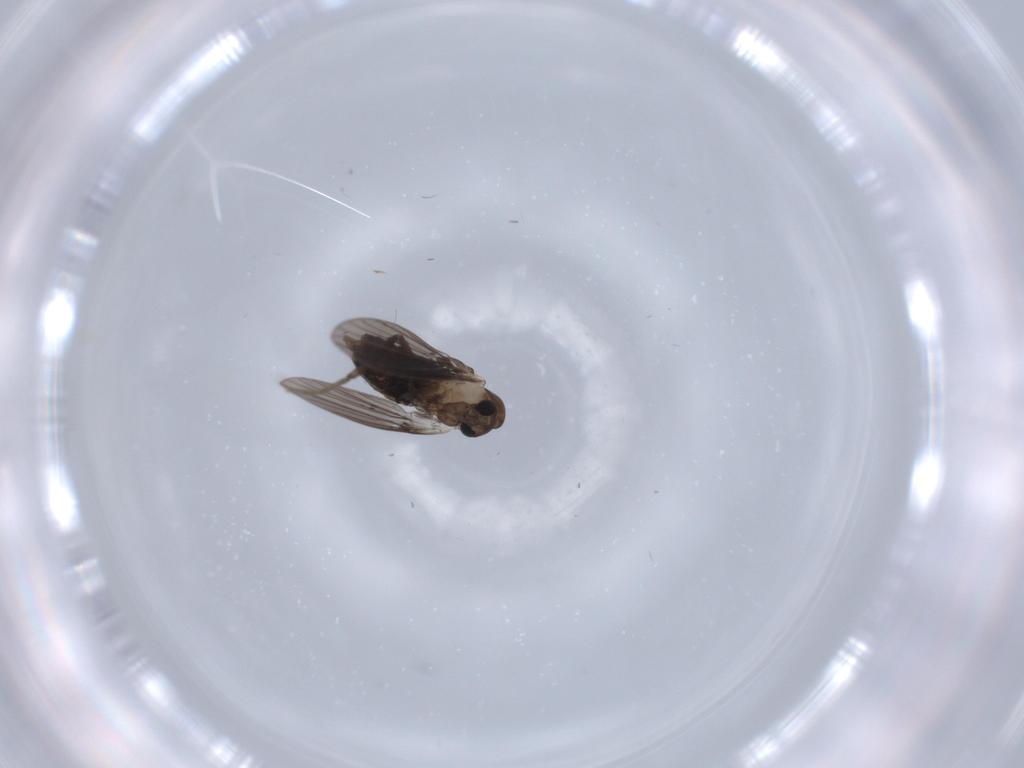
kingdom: Animalia
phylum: Arthropoda
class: Insecta
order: Diptera
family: Psychodidae
